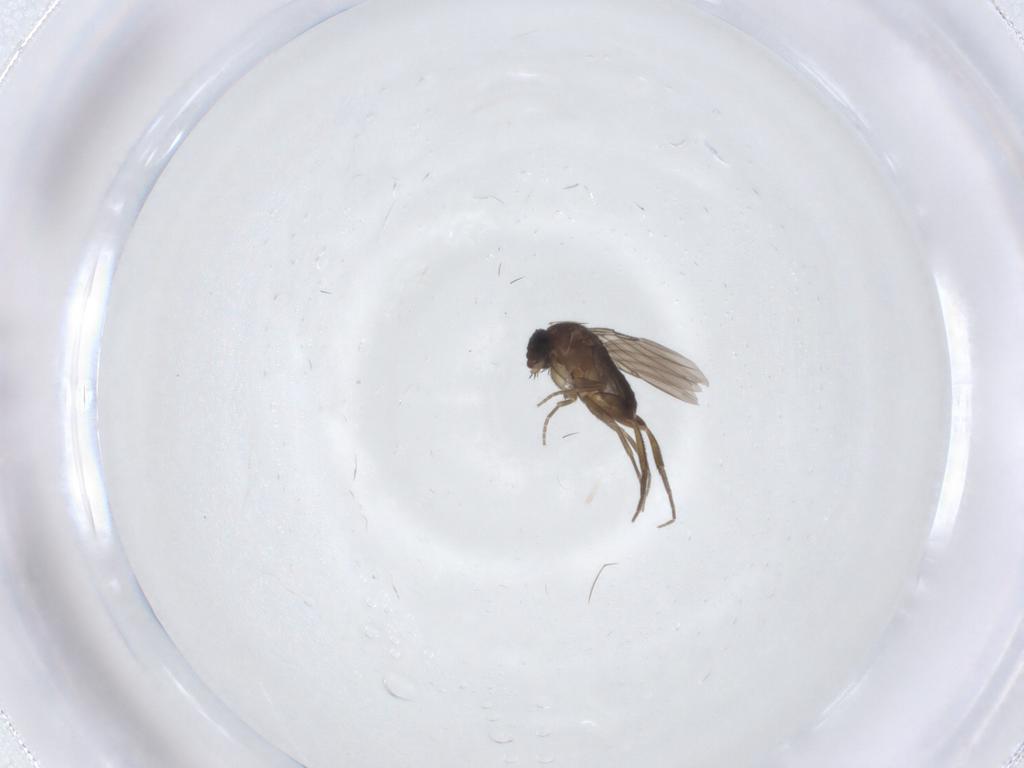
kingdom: Animalia
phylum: Arthropoda
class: Insecta
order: Diptera
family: Phoridae
